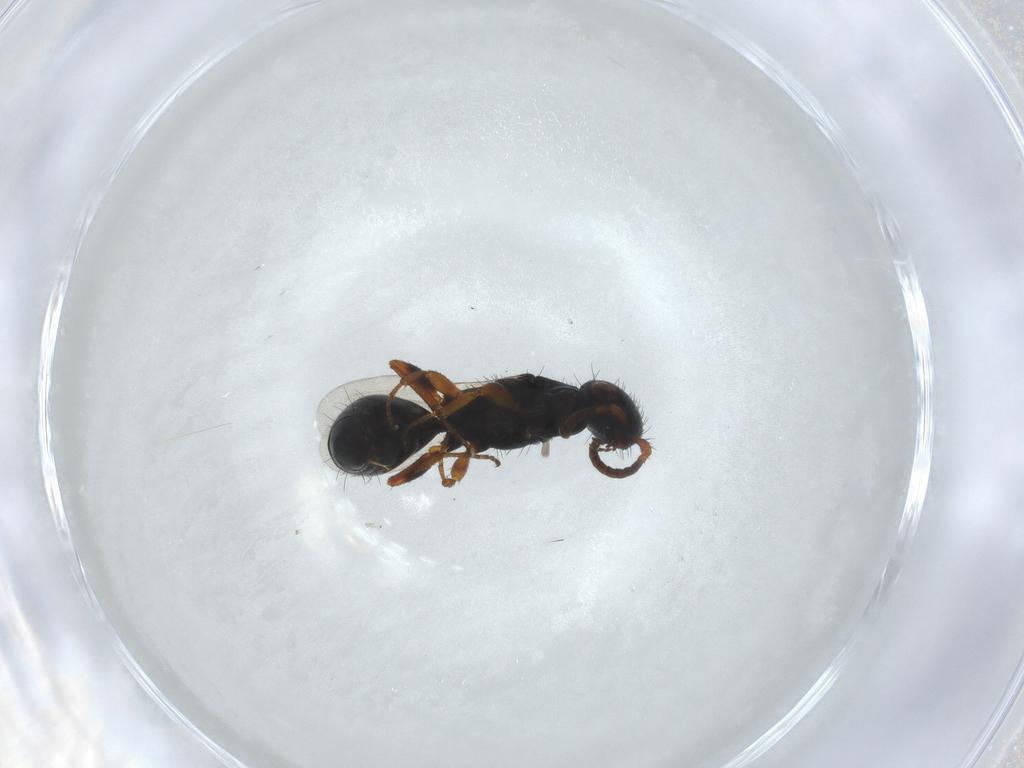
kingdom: Animalia
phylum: Arthropoda
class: Insecta
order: Hymenoptera
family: Bethylidae
